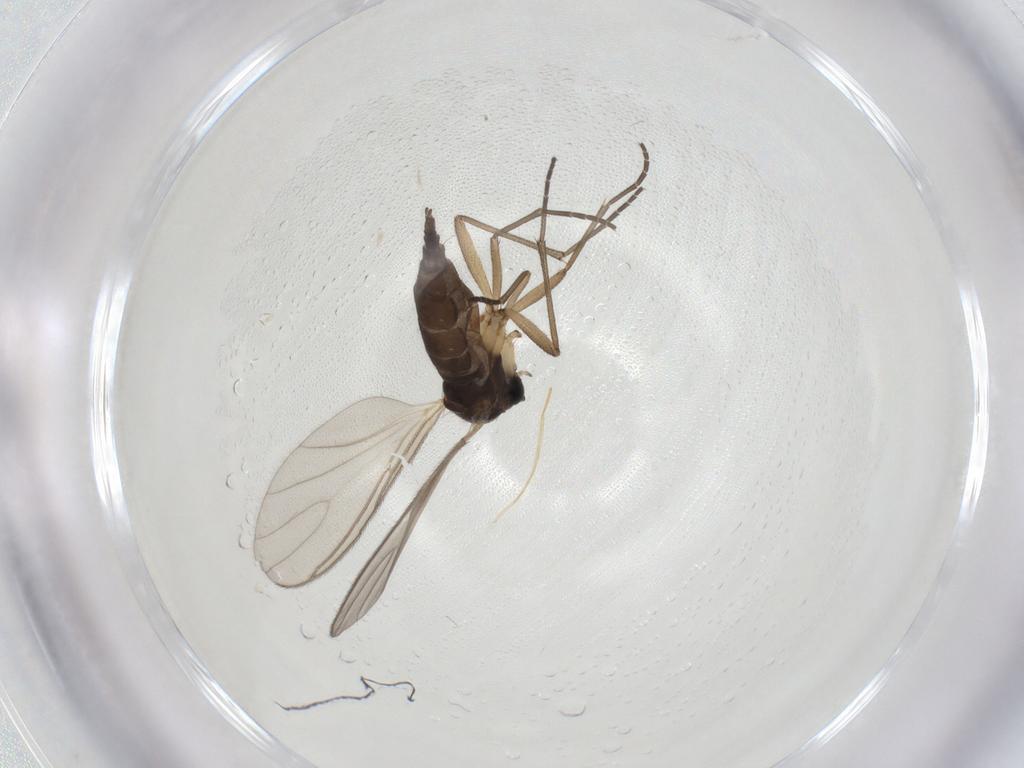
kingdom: Animalia
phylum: Arthropoda
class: Insecta
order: Diptera
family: Sciaridae
